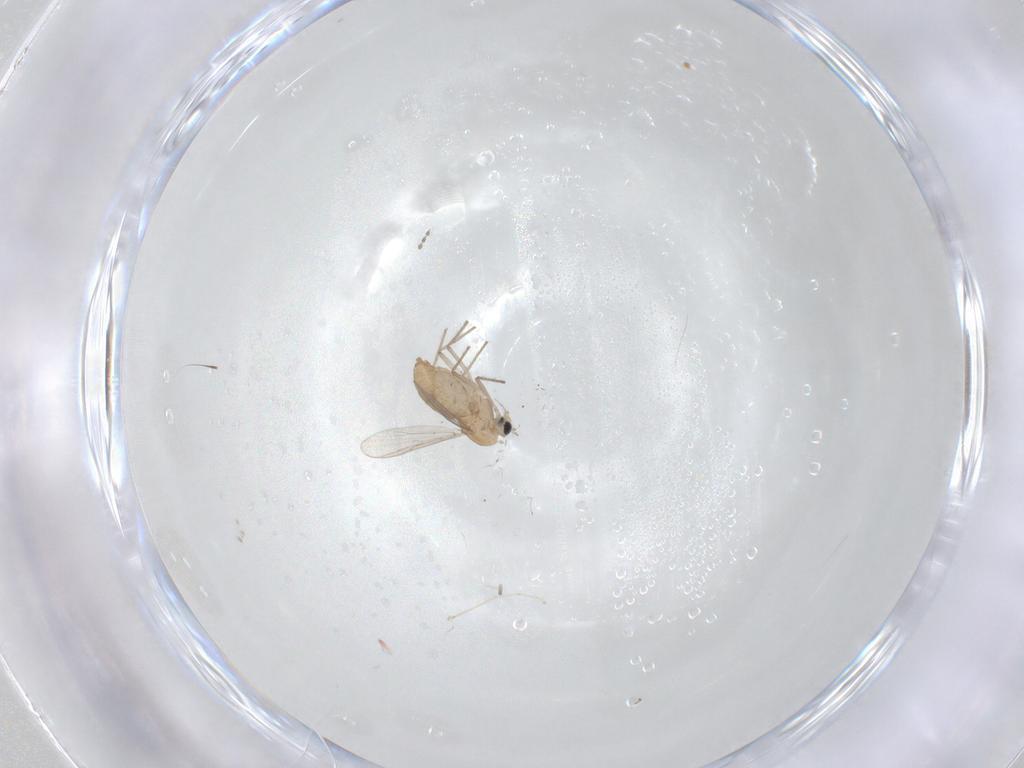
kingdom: Animalia
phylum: Arthropoda
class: Insecta
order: Diptera
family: Chironomidae
